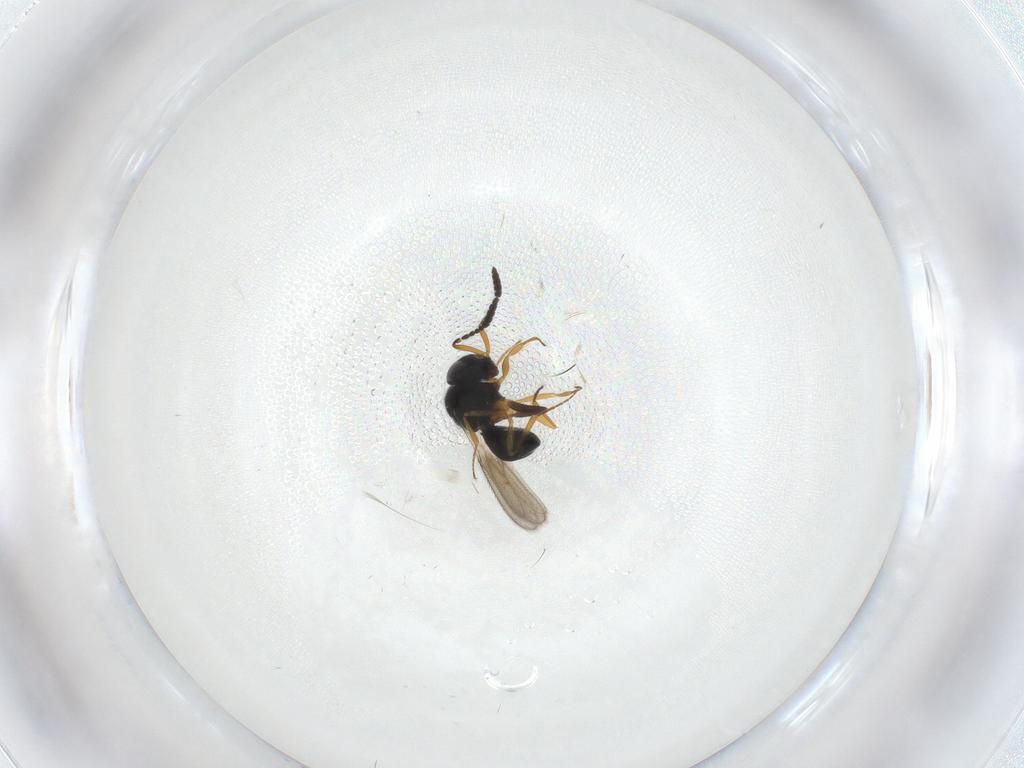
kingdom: Animalia
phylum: Arthropoda
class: Insecta
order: Hymenoptera
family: Scelionidae
